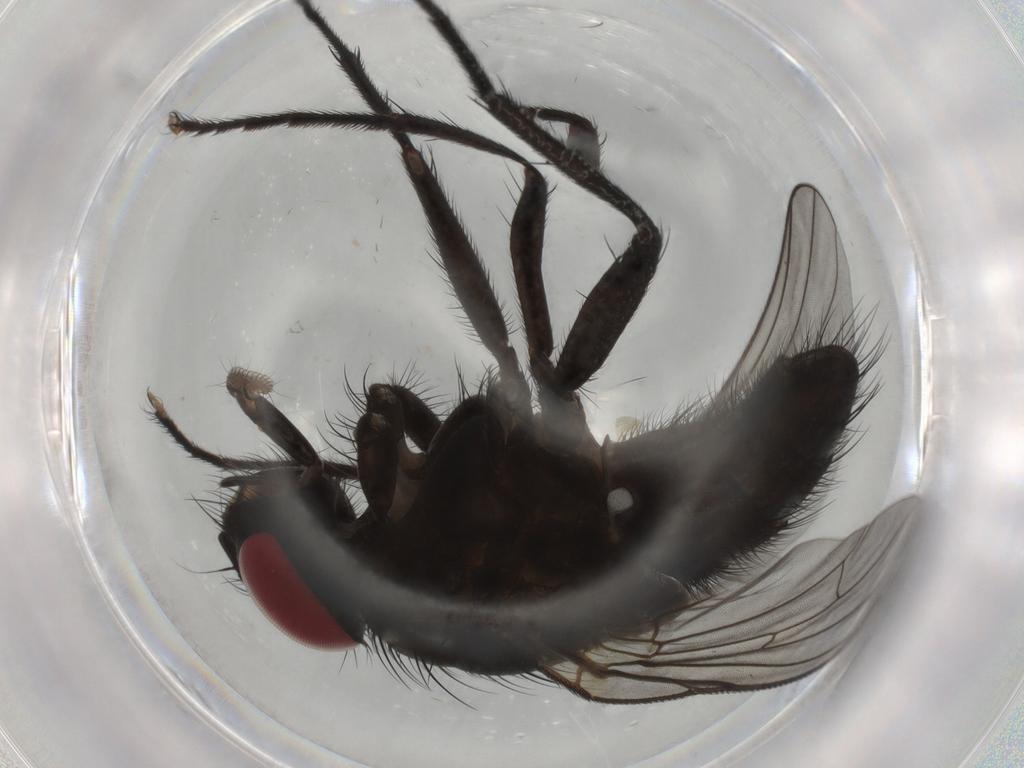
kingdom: Animalia
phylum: Arthropoda
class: Insecta
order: Diptera
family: Muscidae
